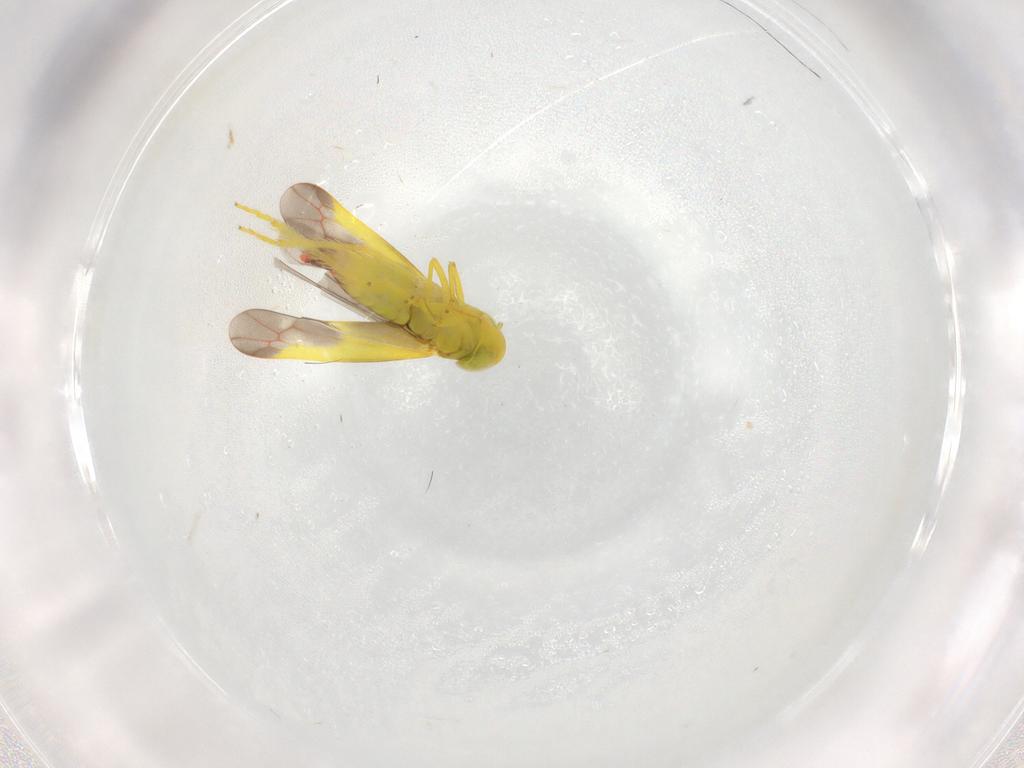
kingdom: Animalia
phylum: Arthropoda
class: Insecta
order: Hemiptera
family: Cicadellidae
